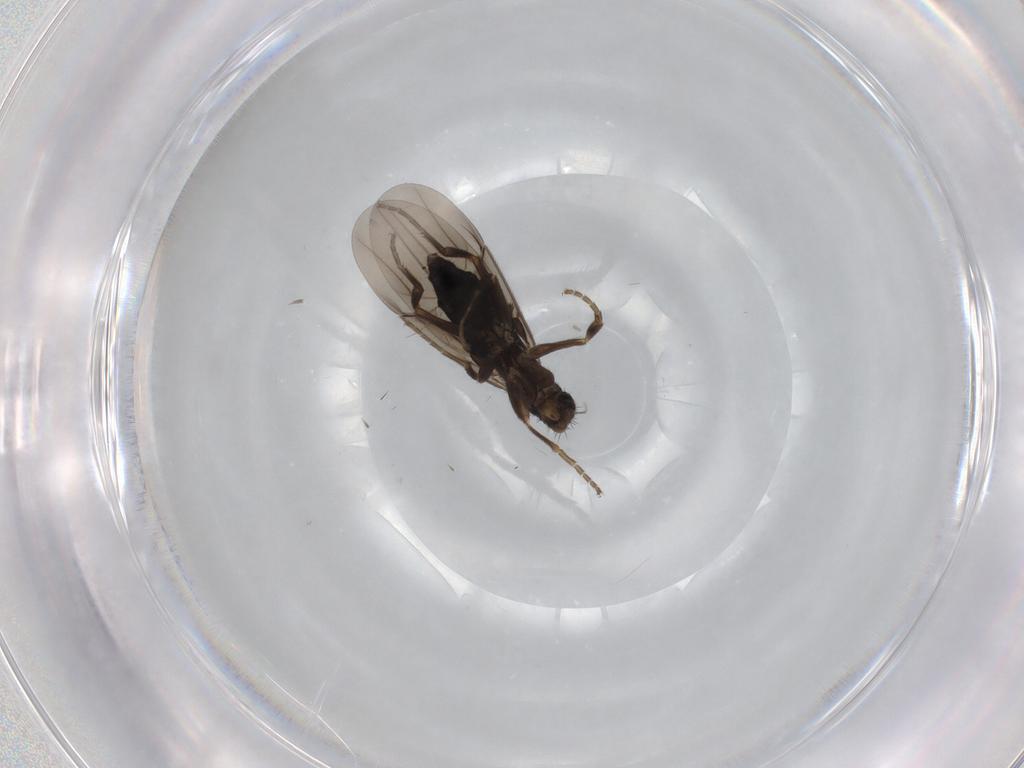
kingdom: Animalia
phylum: Arthropoda
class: Insecta
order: Diptera
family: Phoridae
